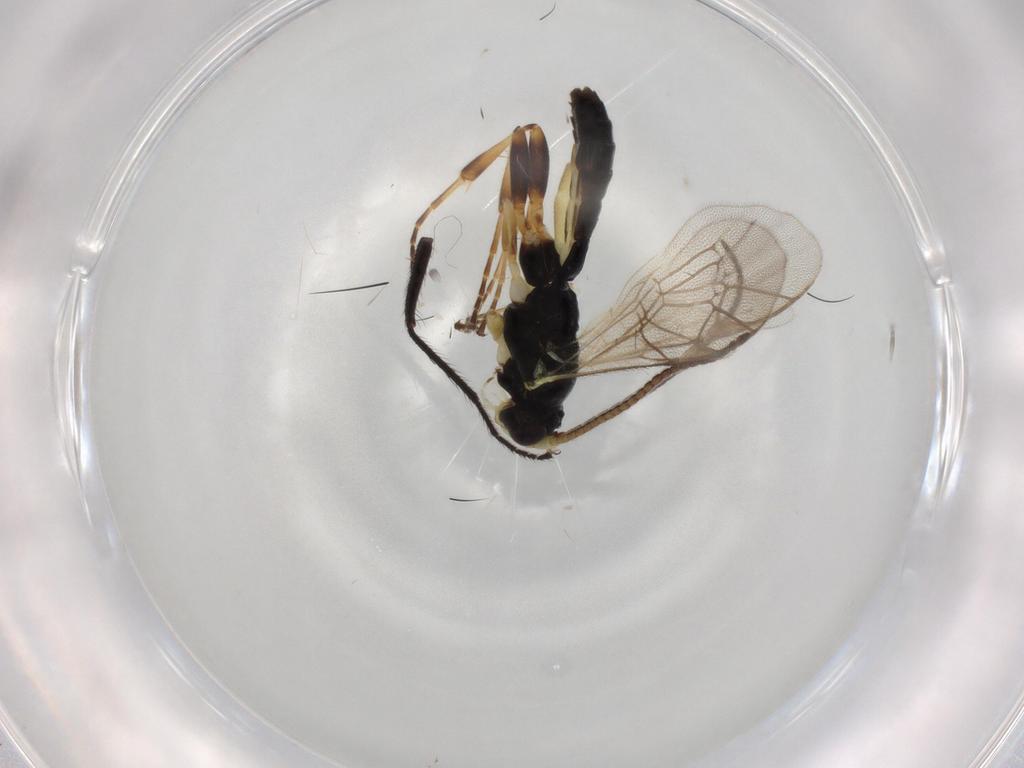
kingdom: Animalia
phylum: Arthropoda
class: Insecta
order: Hymenoptera
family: Ichneumonidae
